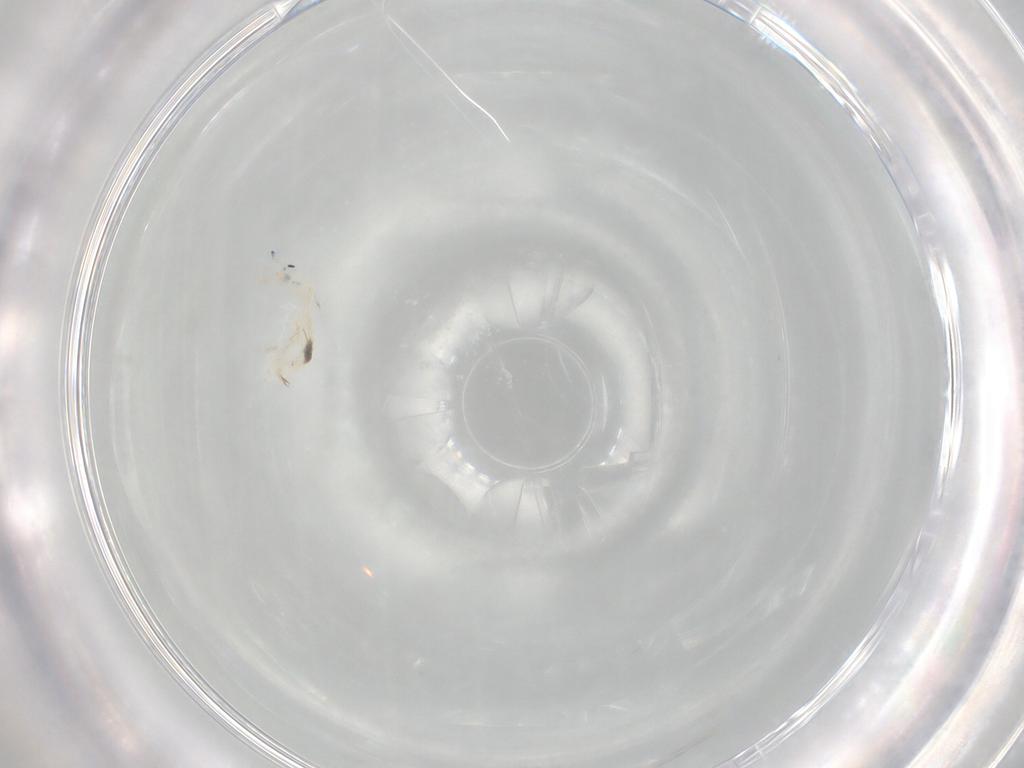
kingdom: Animalia
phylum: Arthropoda
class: Collembola
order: Entomobryomorpha
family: Entomobryidae
